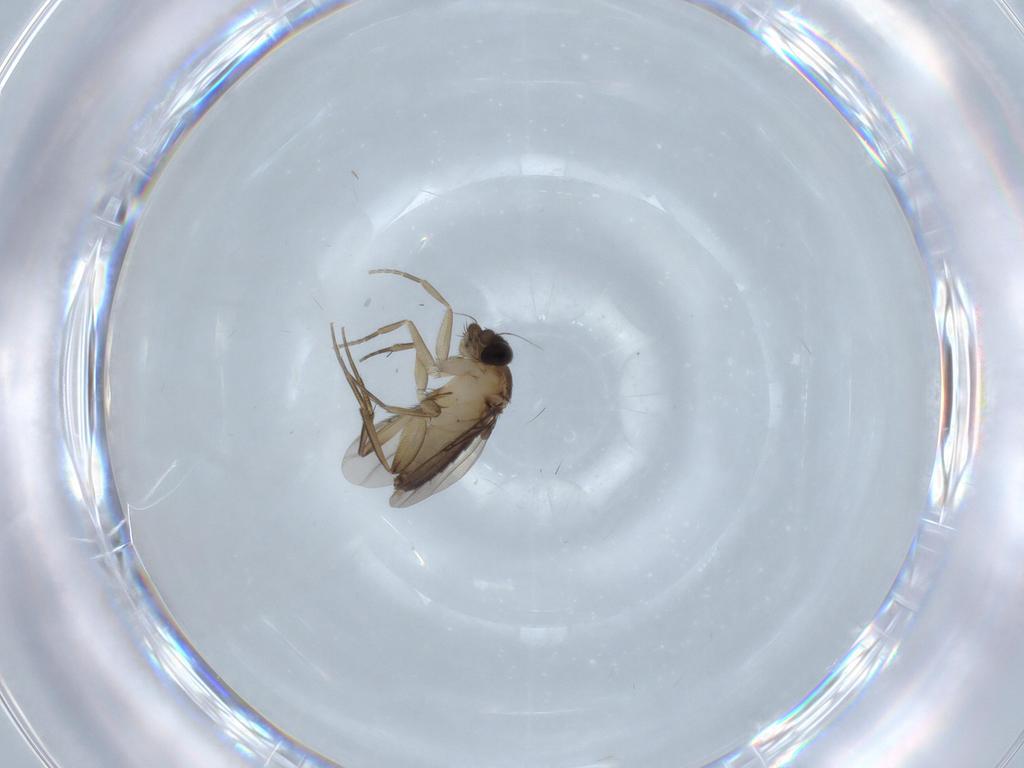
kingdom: Animalia
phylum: Arthropoda
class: Insecta
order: Diptera
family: Phoridae
